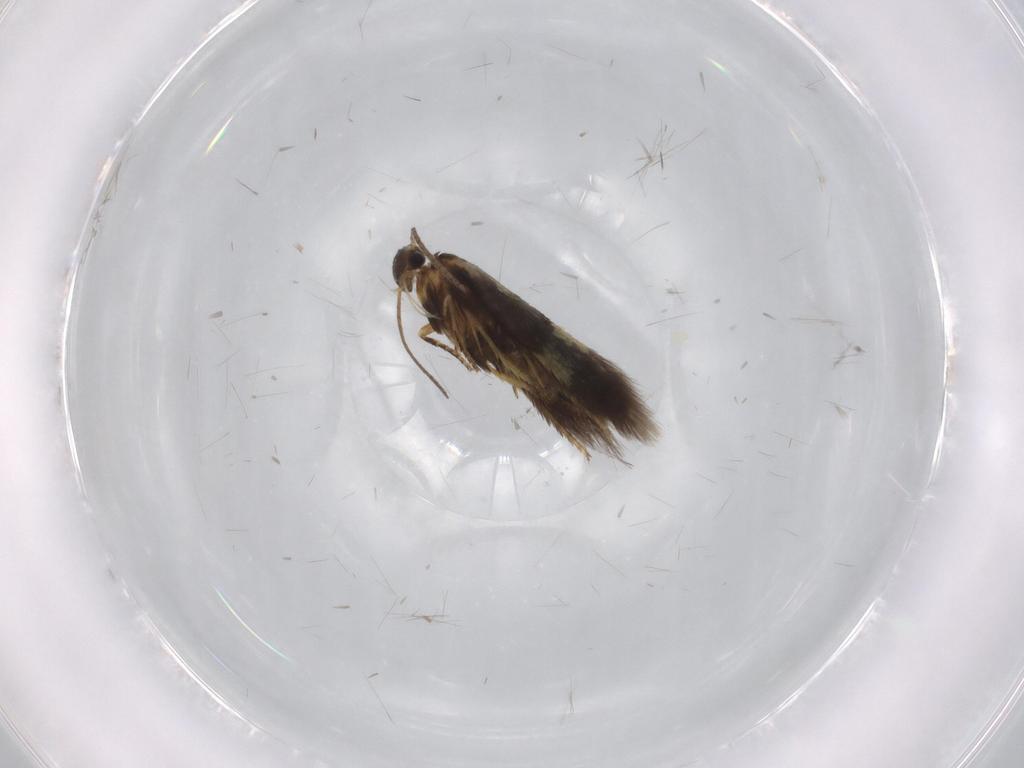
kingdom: Animalia
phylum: Arthropoda
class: Insecta
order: Lepidoptera
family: Heliozelidae
